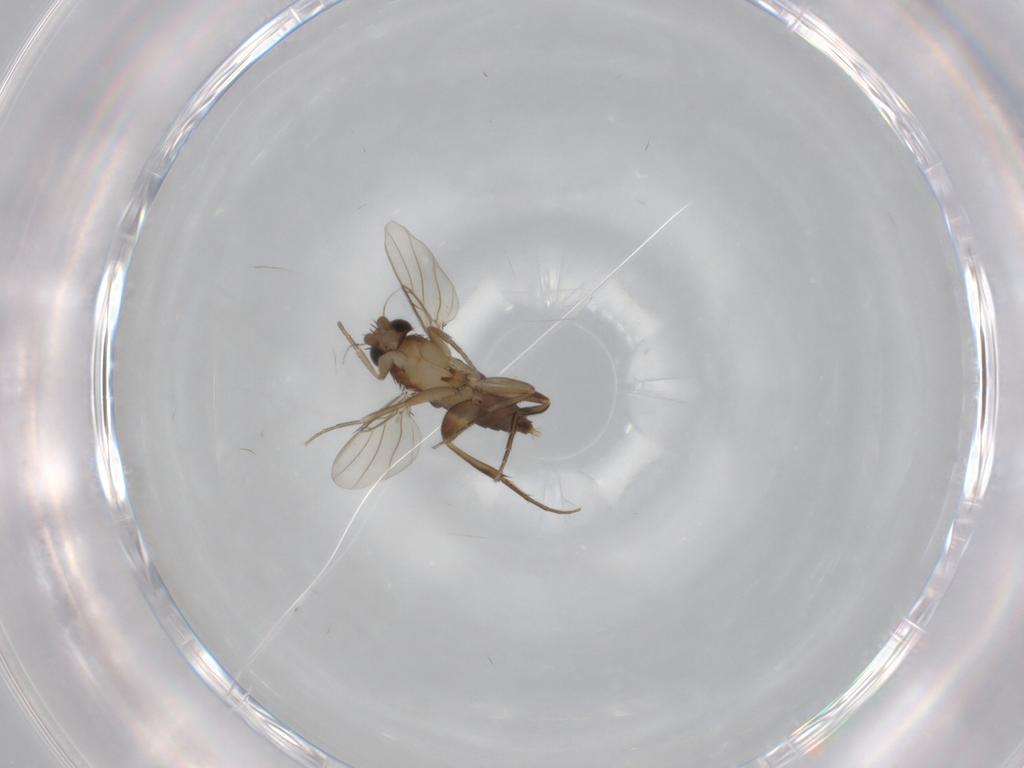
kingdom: Animalia
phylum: Arthropoda
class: Insecta
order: Diptera
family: Phoridae
